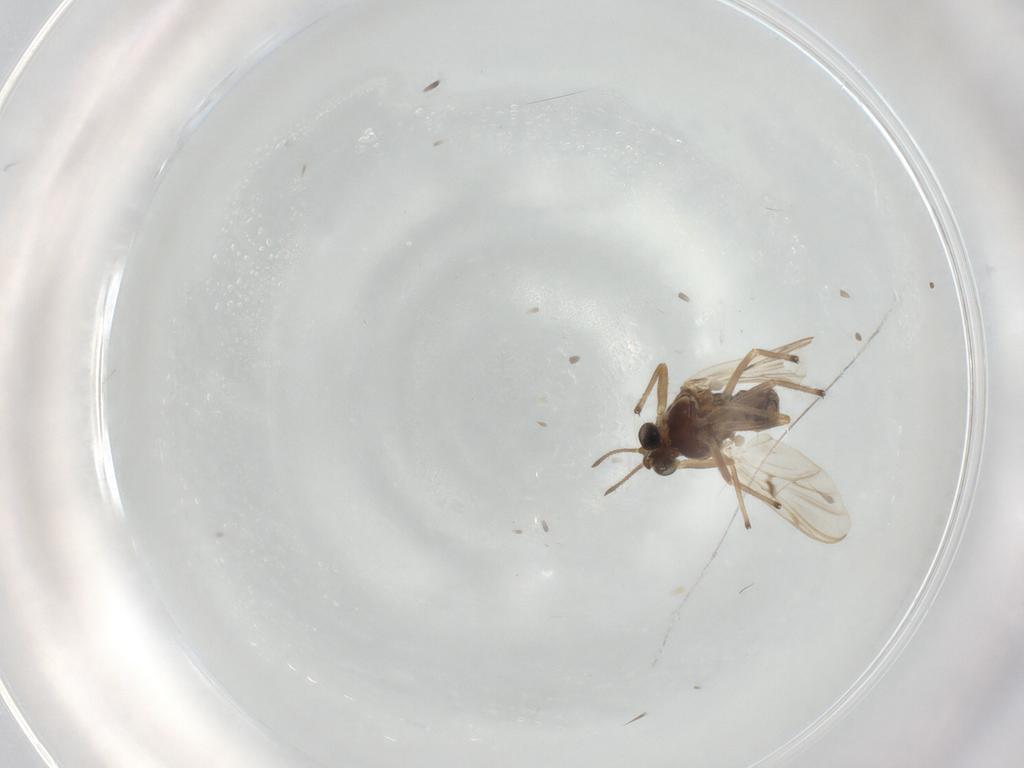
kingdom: Animalia
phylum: Arthropoda
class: Insecta
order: Diptera
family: Chironomidae
